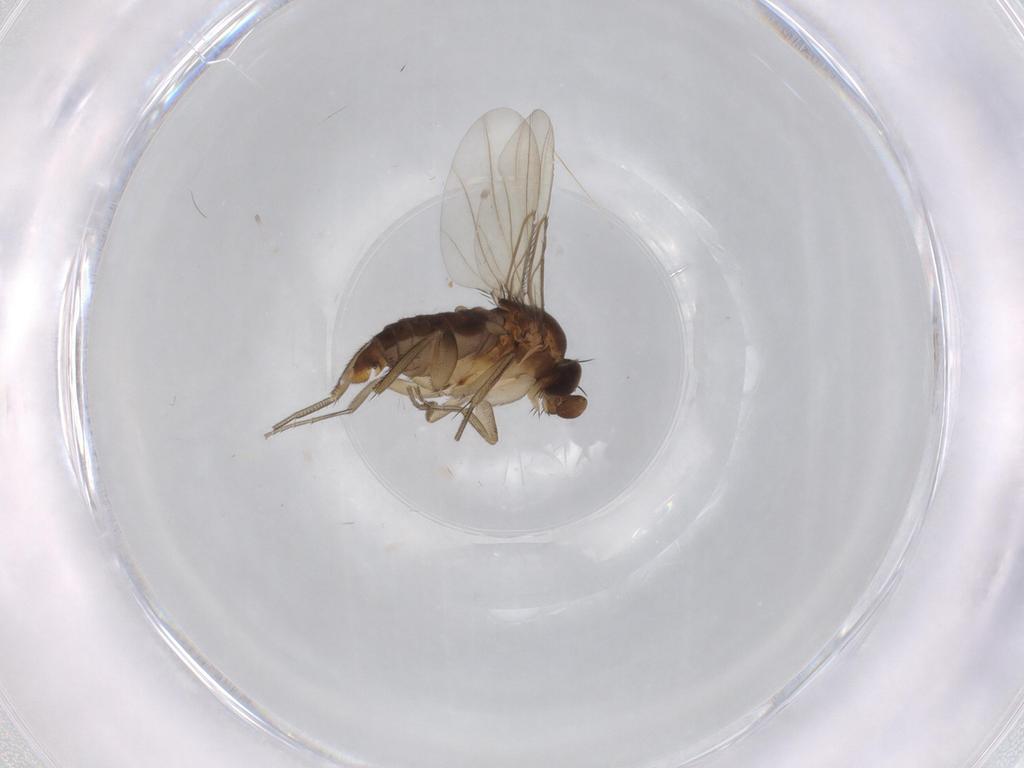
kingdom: Animalia
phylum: Arthropoda
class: Insecta
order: Diptera
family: Phoridae
